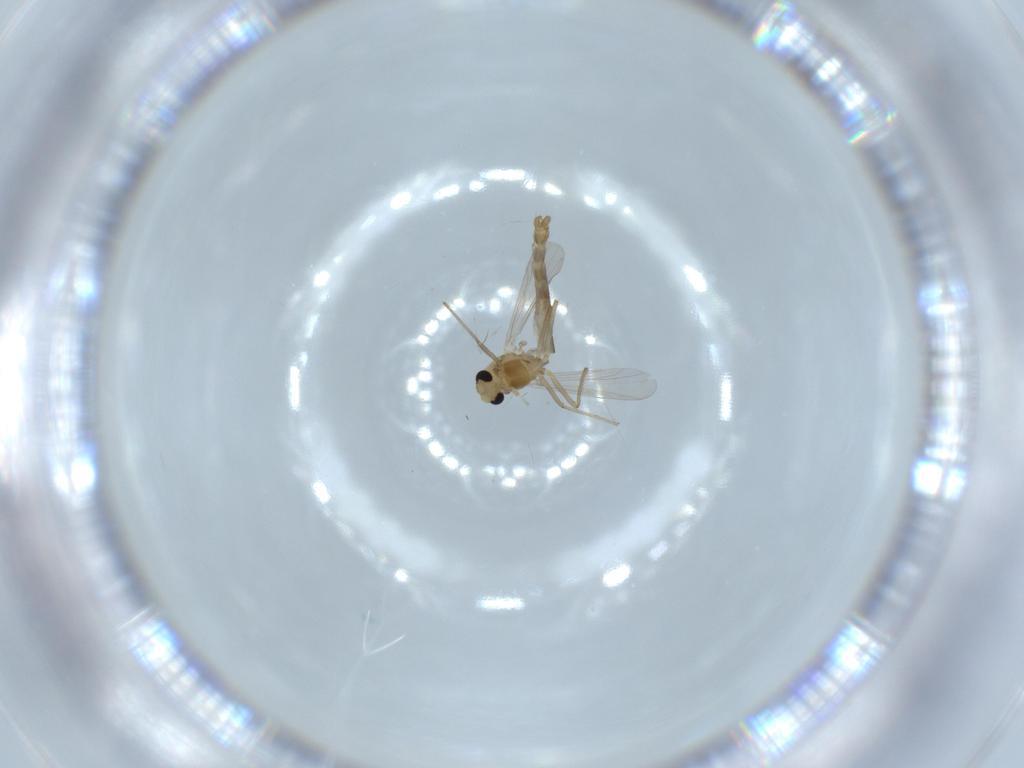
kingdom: Animalia
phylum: Arthropoda
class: Insecta
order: Diptera
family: Chironomidae
